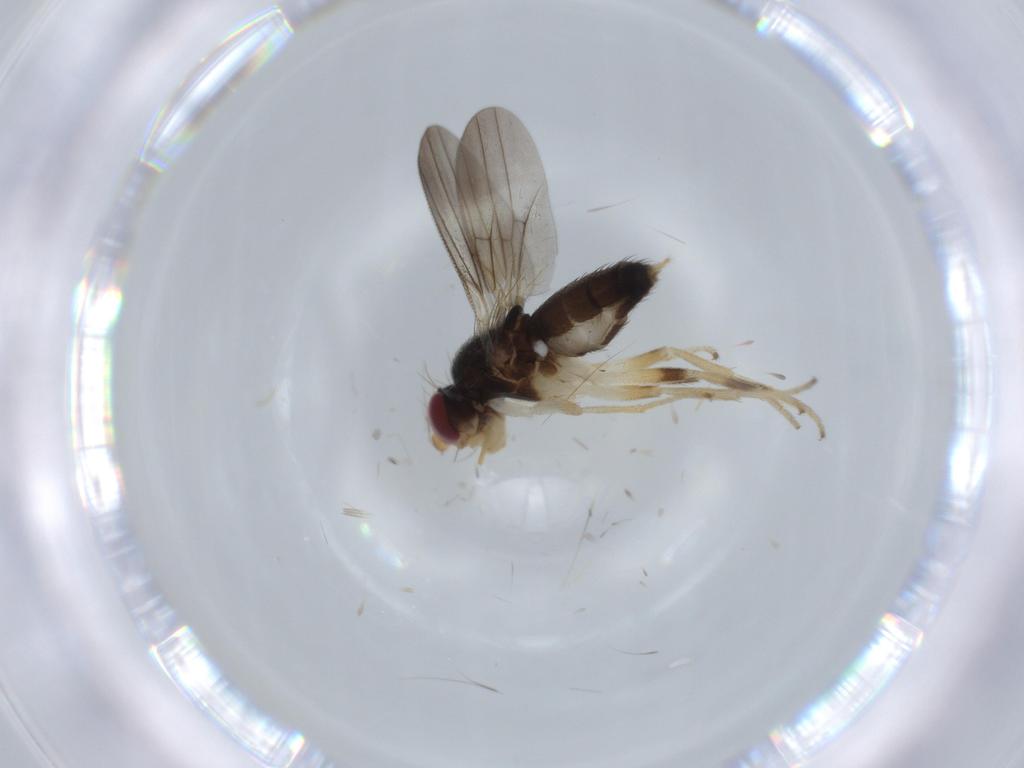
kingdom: Animalia
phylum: Arthropoda
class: Insecta
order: Diptera
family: Clusiidae
